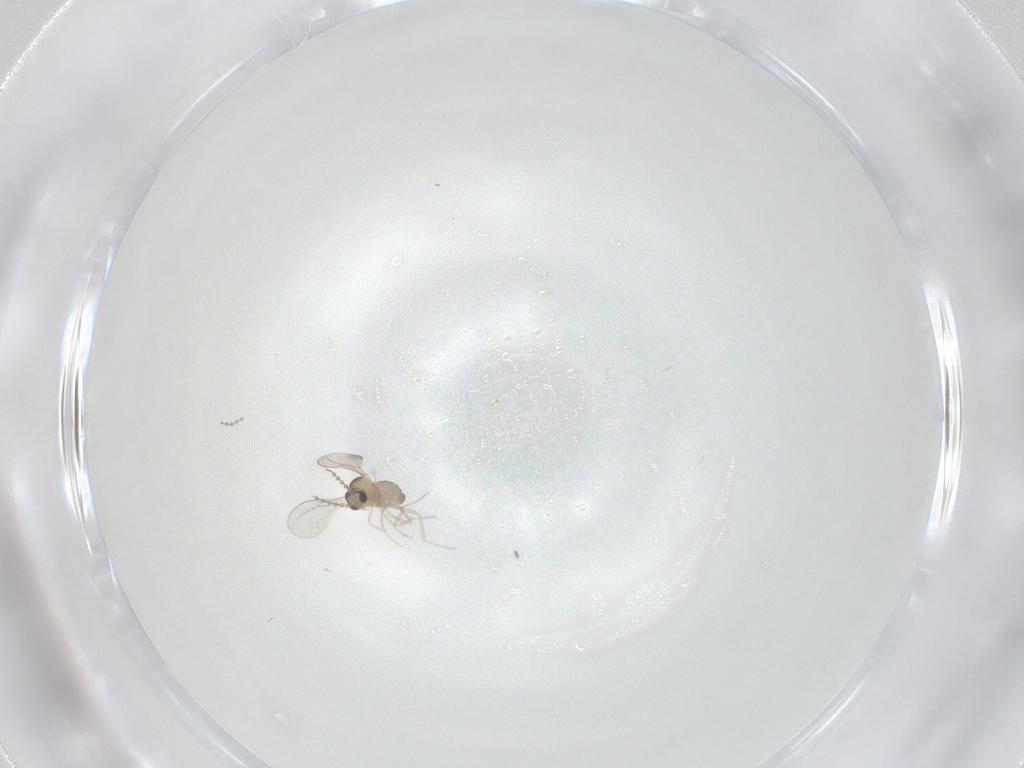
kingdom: Animalia
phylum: Arthropoda
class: Insecta
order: Diptera
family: Cecidomyiidae
